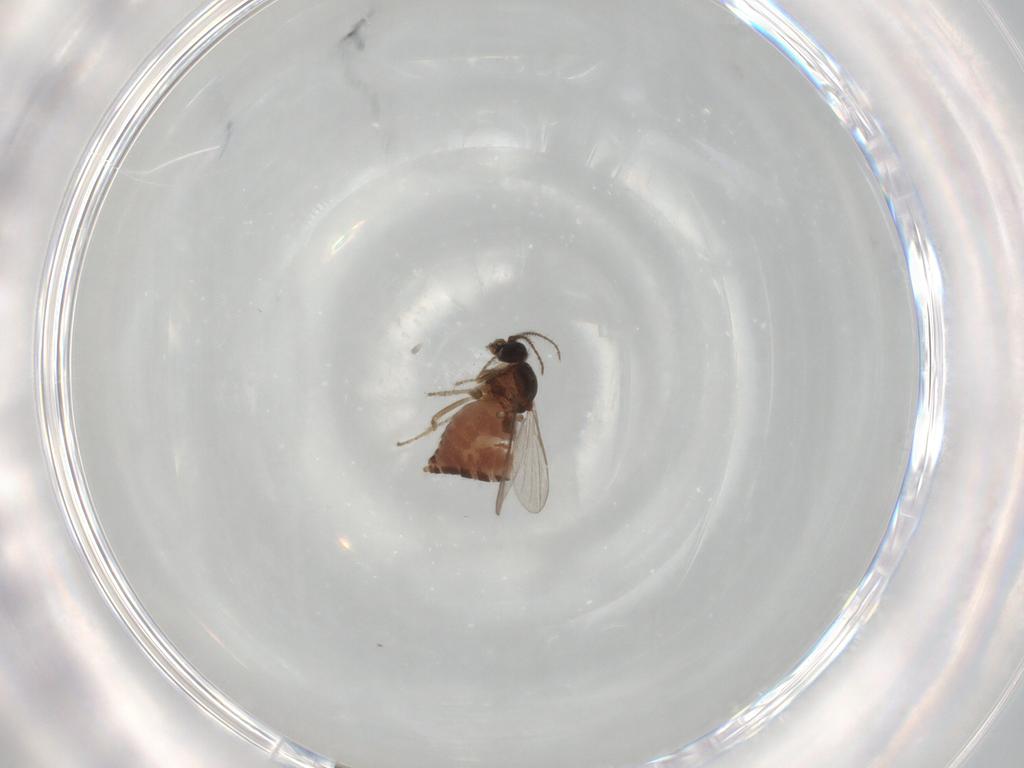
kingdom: Animalia
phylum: Arthropoda
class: Insecta
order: Diptera
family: Ceratopogonidae
